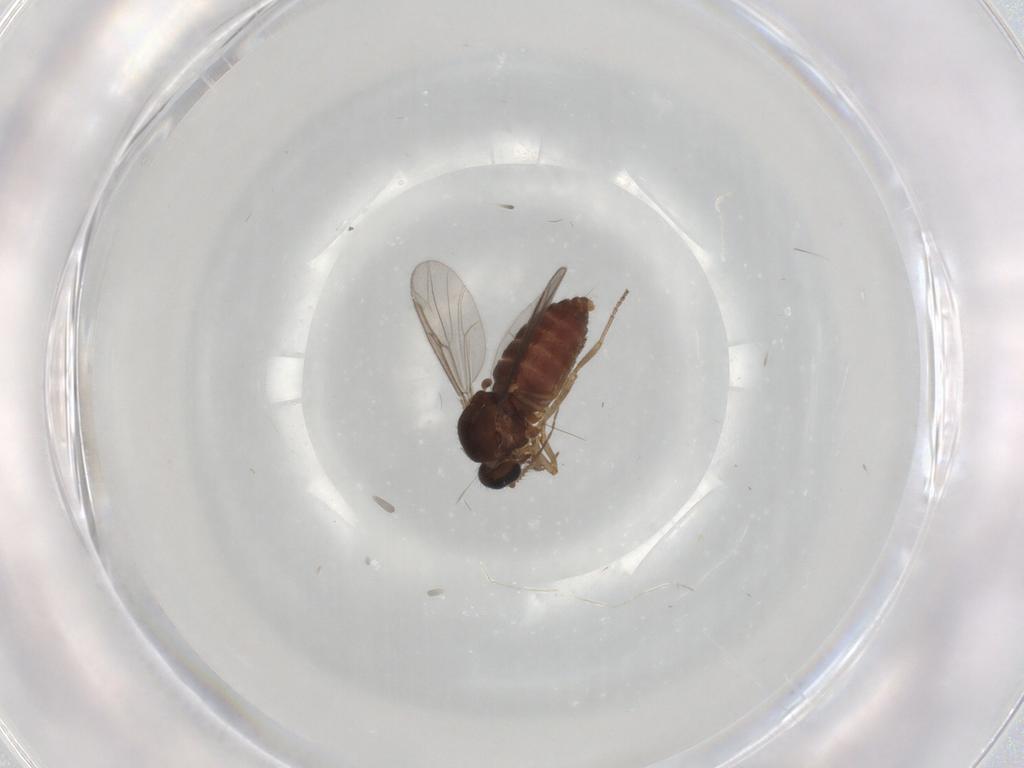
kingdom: Animalia
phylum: Arthropoda
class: Insecta
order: Diptera
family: Ceratopogonidae
